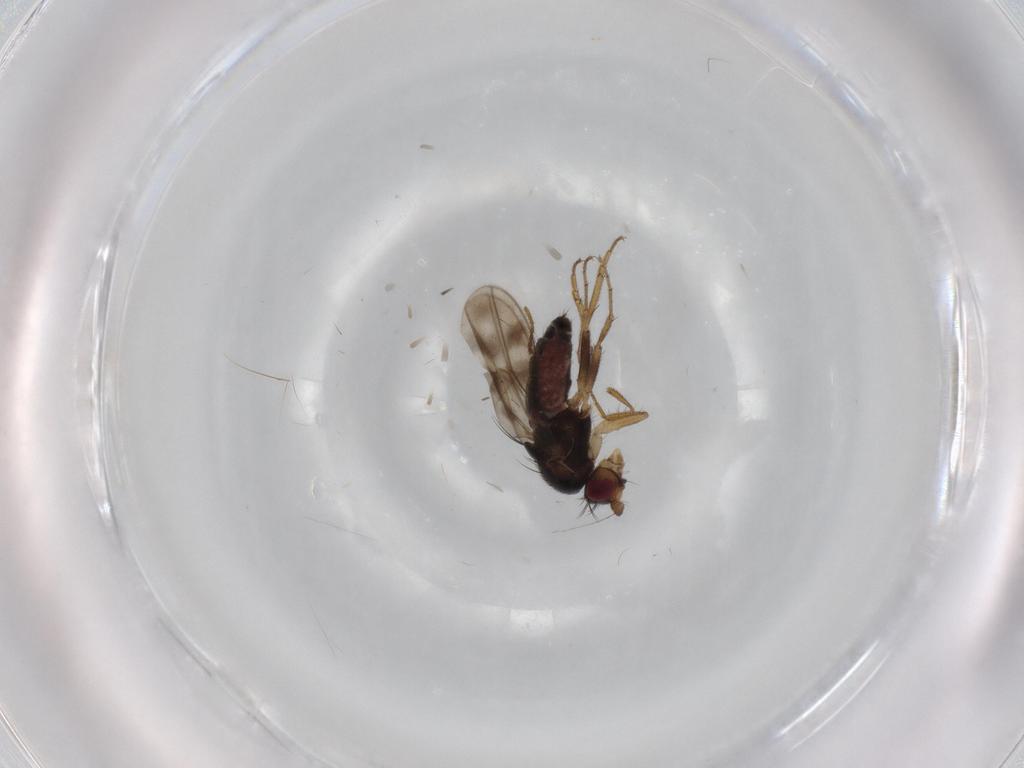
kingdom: Animalia
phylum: Arthropoda
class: Insecta
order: Diptera
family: Sphaeroceridae
